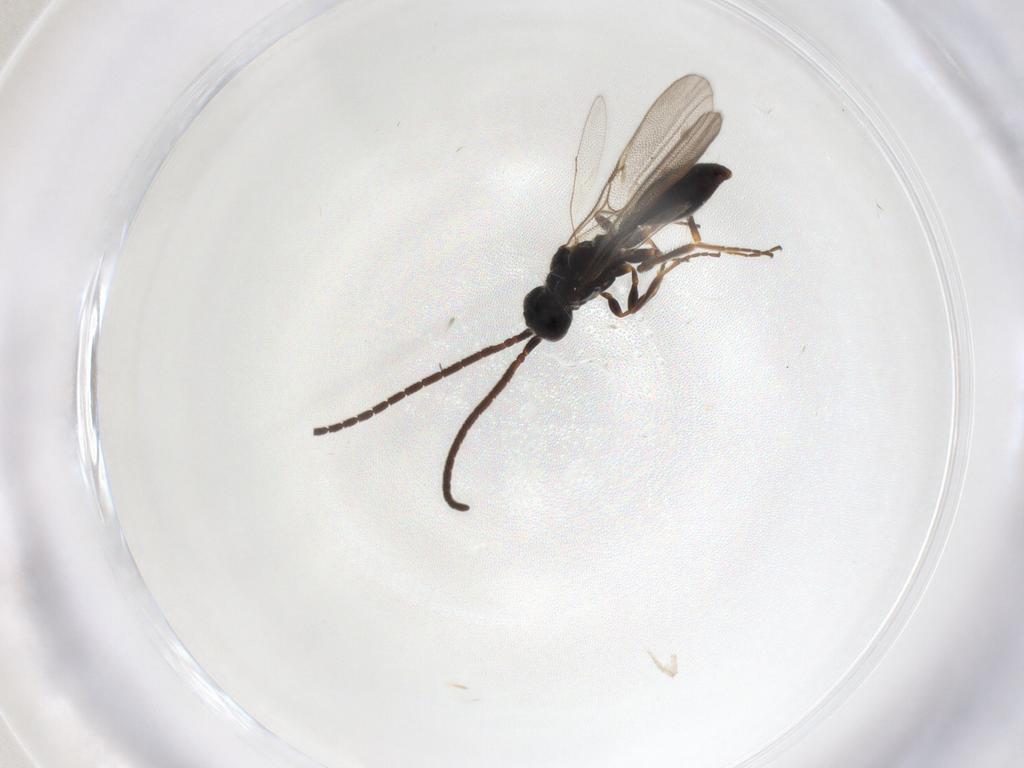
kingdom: Animalia
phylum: Arthropoda
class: Insecta
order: Hymenoptera
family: Diapriidae
